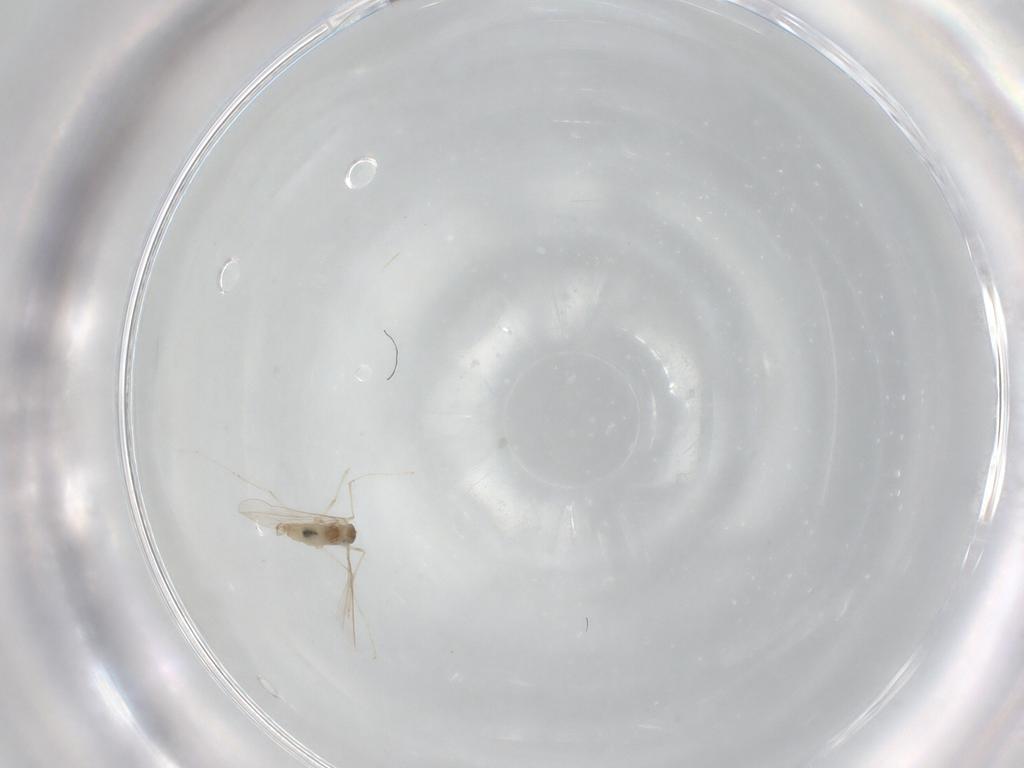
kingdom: Animalia
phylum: Arthropoda
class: Insecta
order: Diptera
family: Cecidomyiidae
